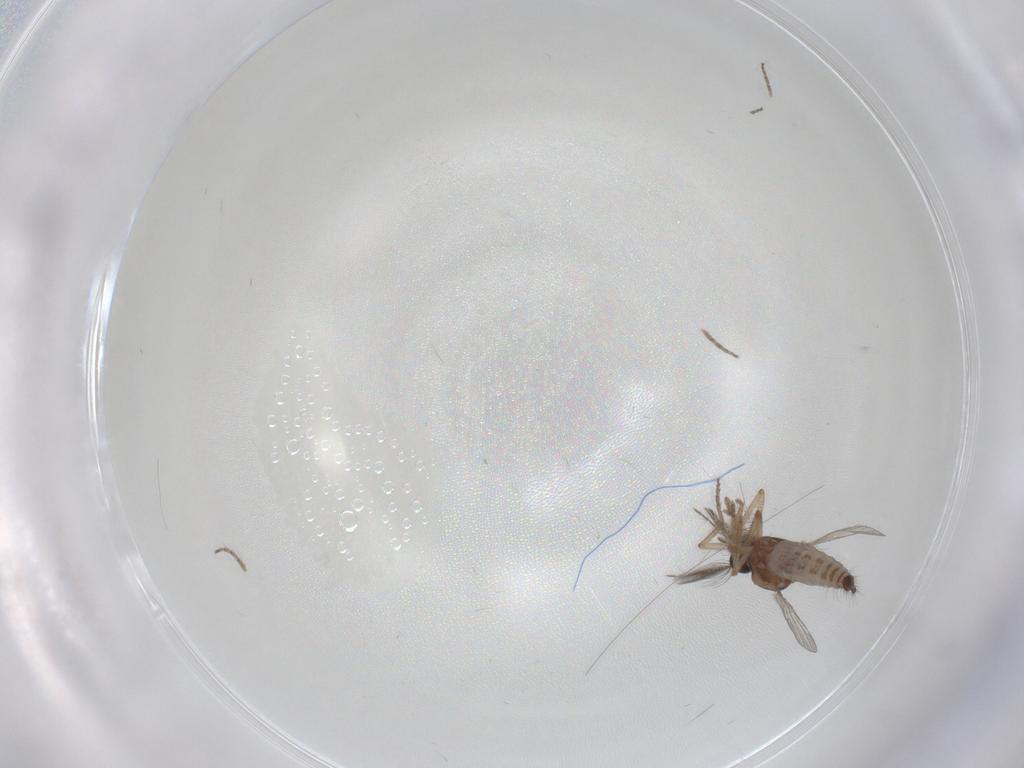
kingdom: Animalia
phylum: Arthropoda
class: Insecta
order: Diptera
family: Ceratopogonidae
